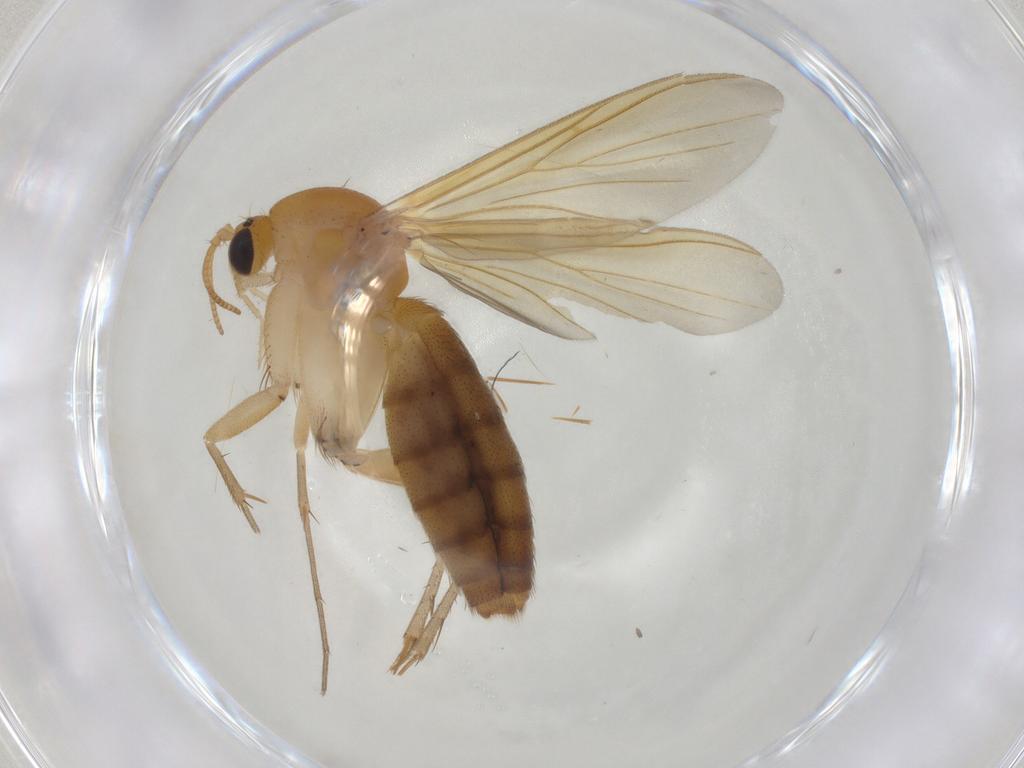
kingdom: Animalia
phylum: Arthropoda
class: Insecta
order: Diptera
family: Mycetophilidae
